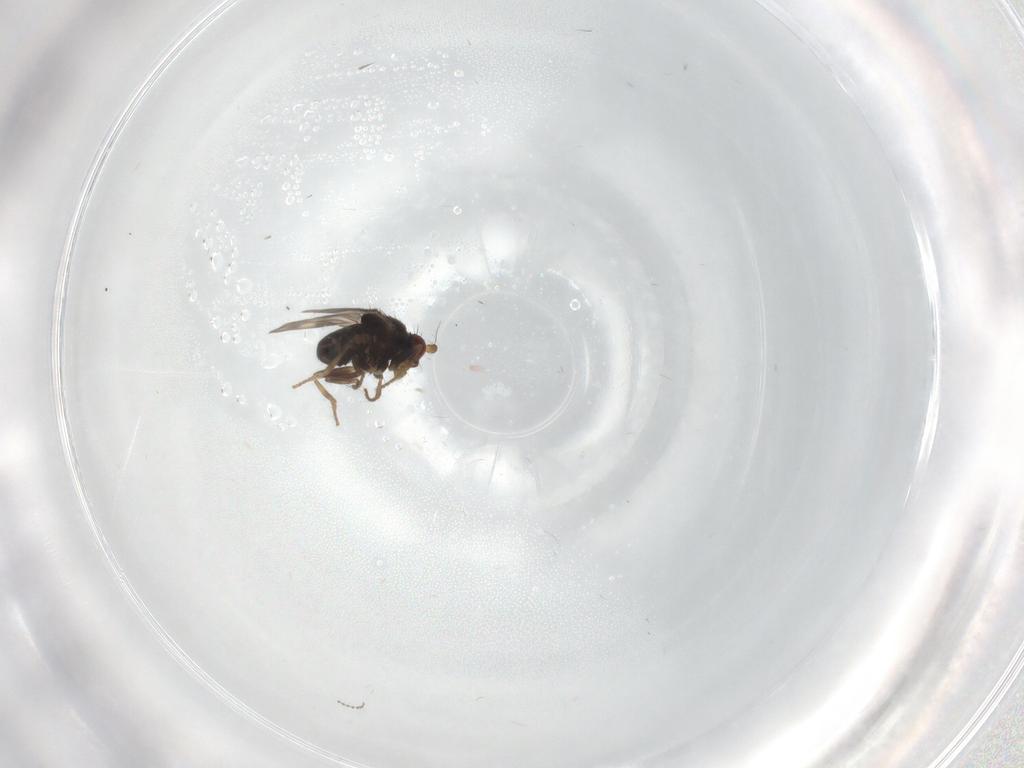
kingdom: Animalia
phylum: Arthropoda
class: Insecta
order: Diptera
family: Sphaeroceridae
